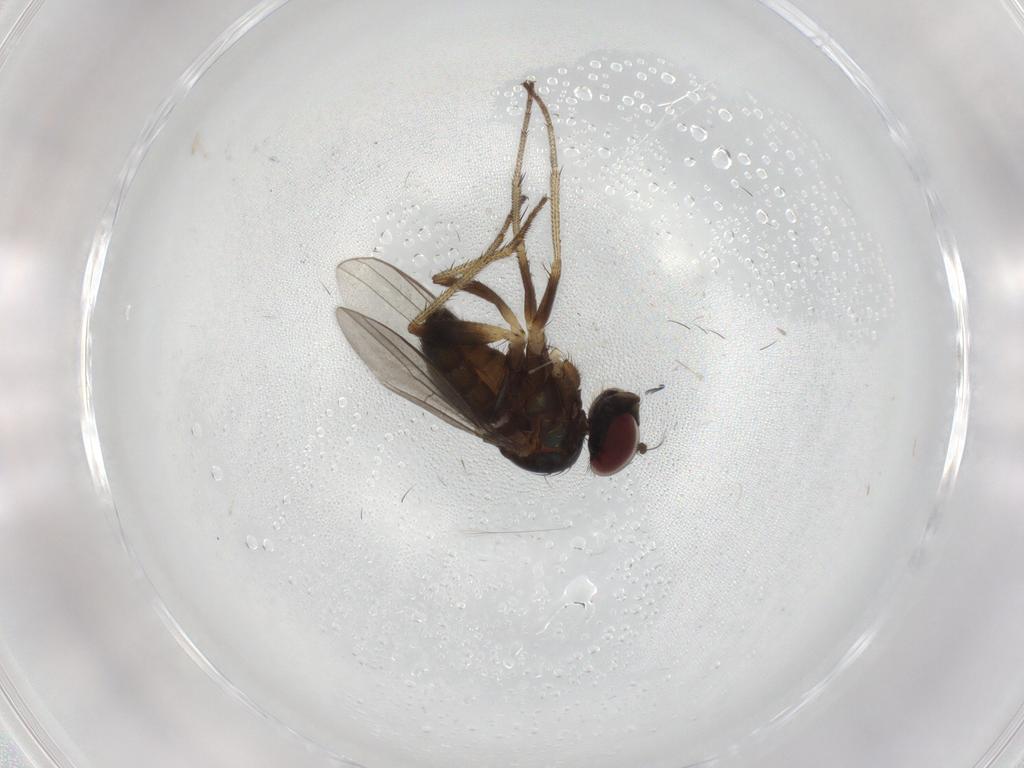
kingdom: Animalia
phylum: Arthropoda
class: Insecta
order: Diptera
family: Cecidomyiidae
